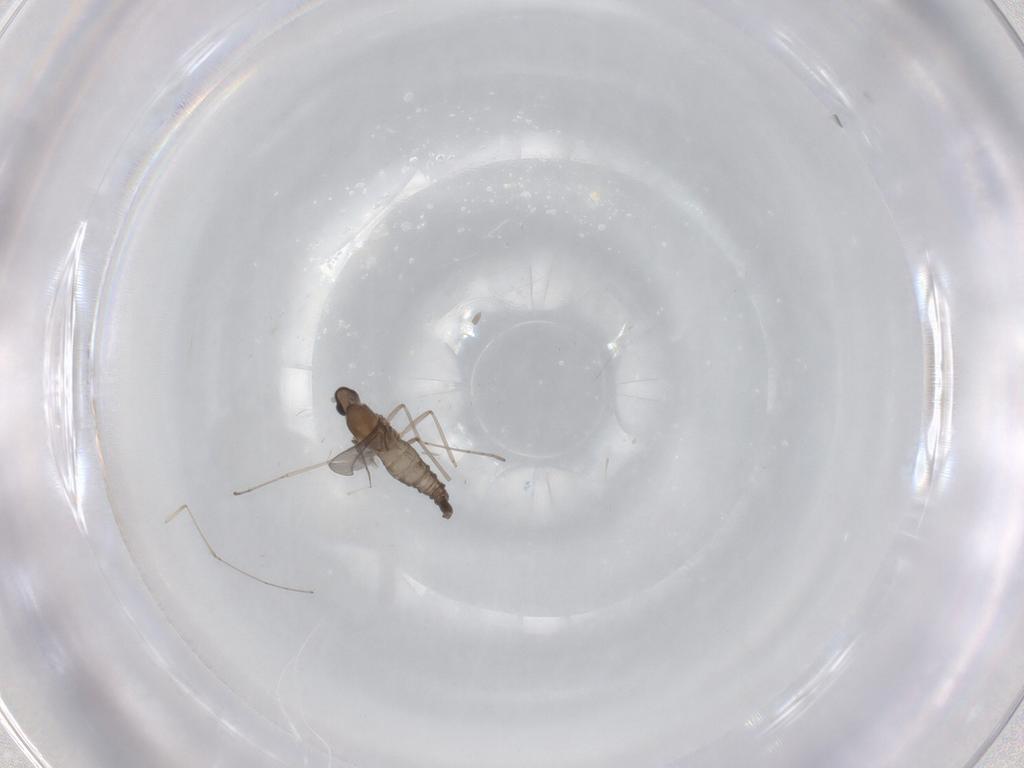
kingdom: Animalia
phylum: Arthropoda
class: Insecta
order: Diptera
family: Cecidomyiidae
